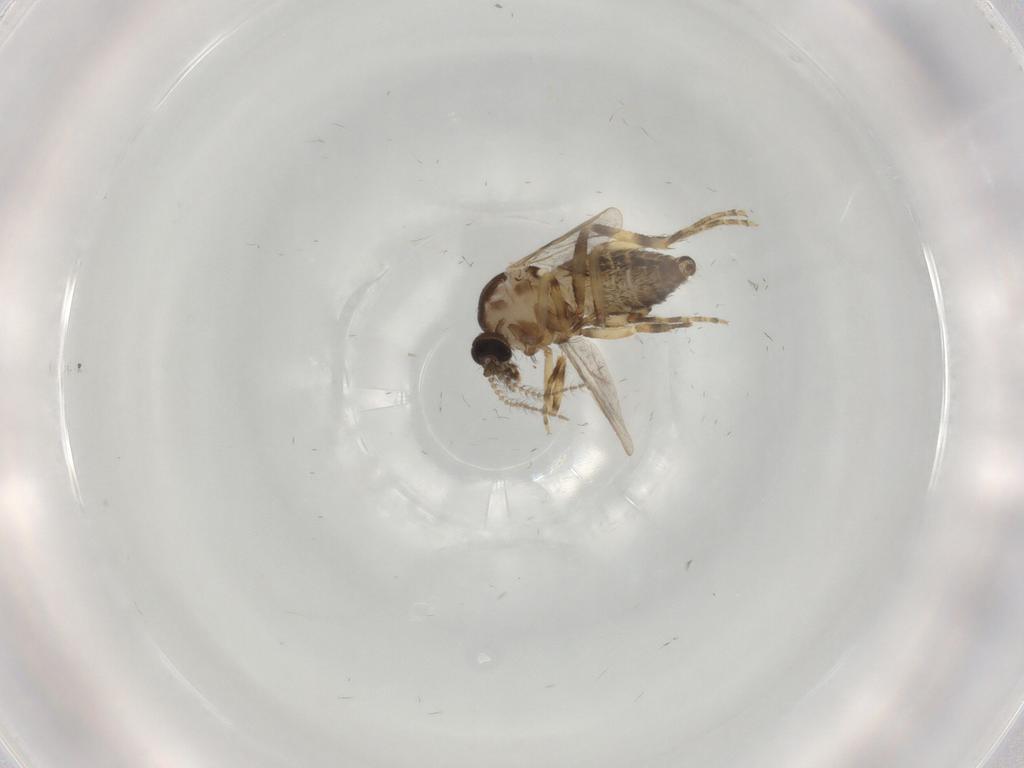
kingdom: Animalia
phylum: Arthropoda
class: Insecta
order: Diptera
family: Ceratopogonidae
